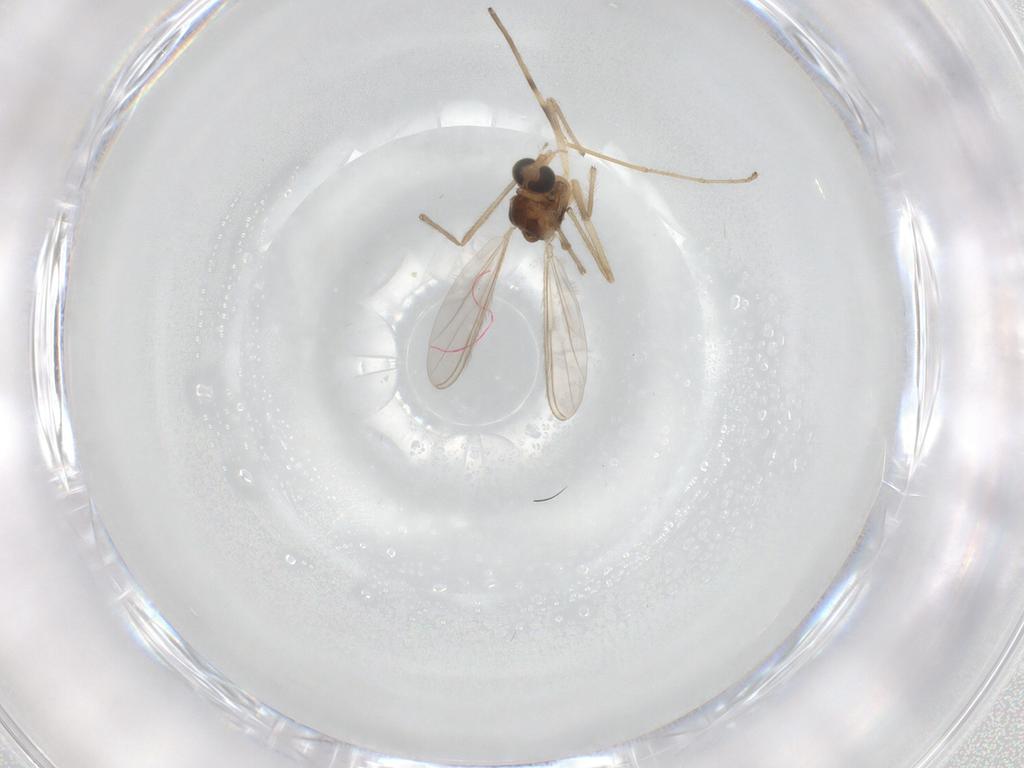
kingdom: Animalia
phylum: Arthropoda
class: Insecta
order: Diptera
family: Chironomidae
